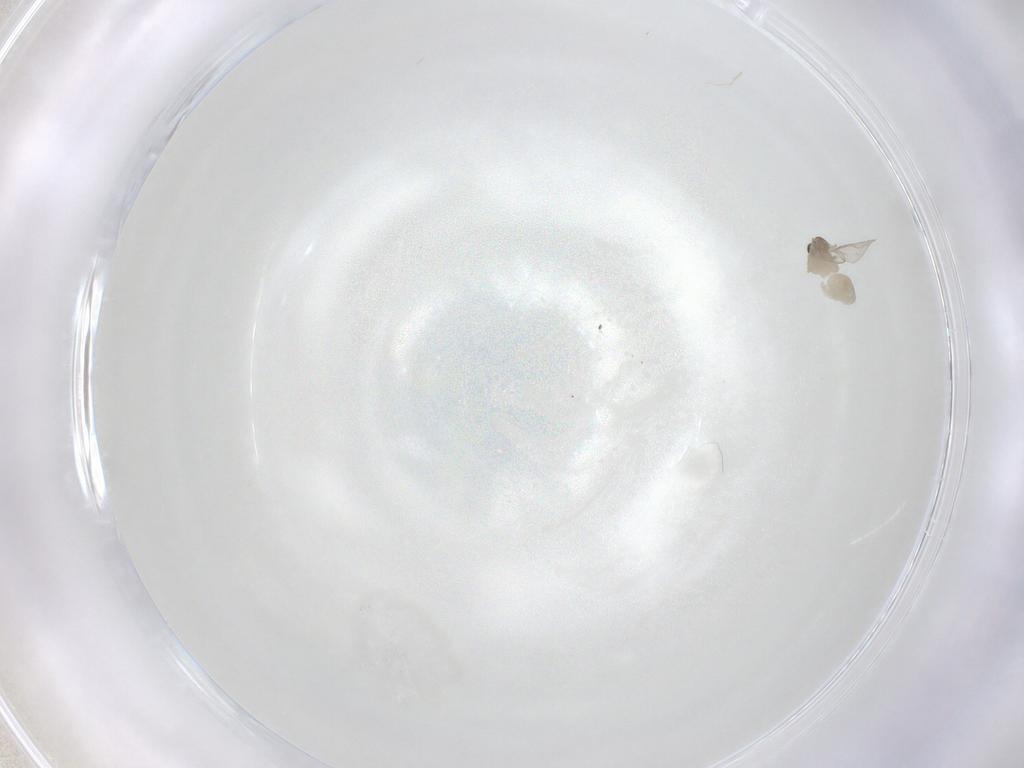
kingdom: Animalia
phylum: Arthropoda
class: Insecta
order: Diptera
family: Cecidomyiidae
